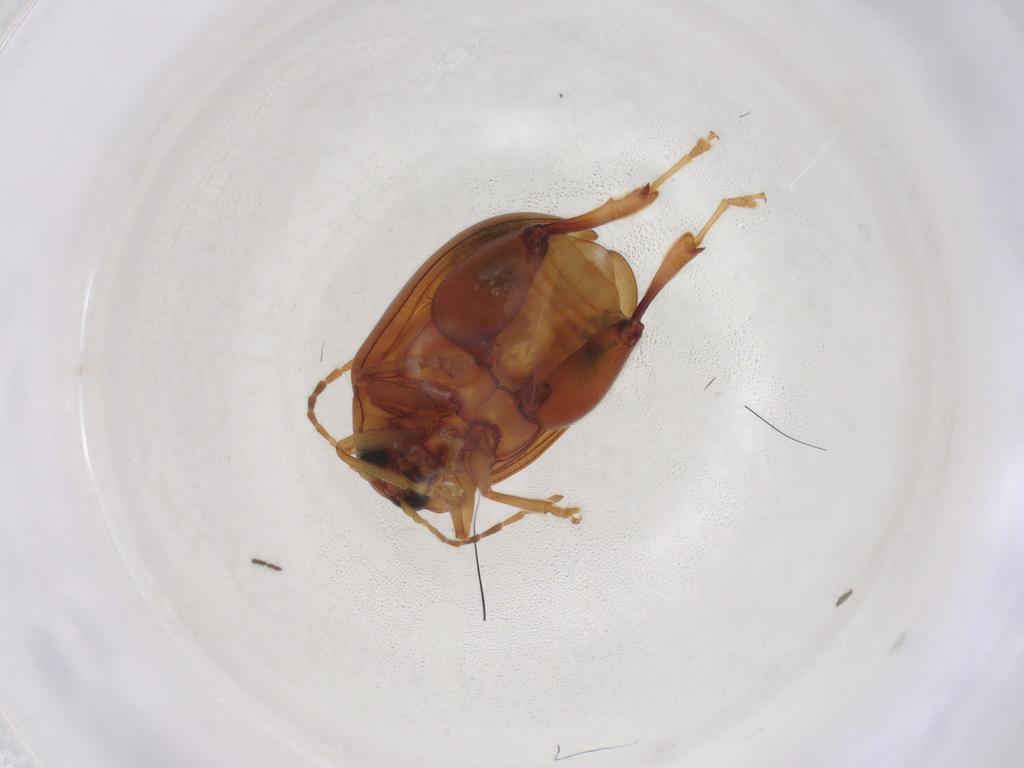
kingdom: Animalia
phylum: Arthropoda
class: Insecta
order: Coleoptera
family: Chrysomelidae
